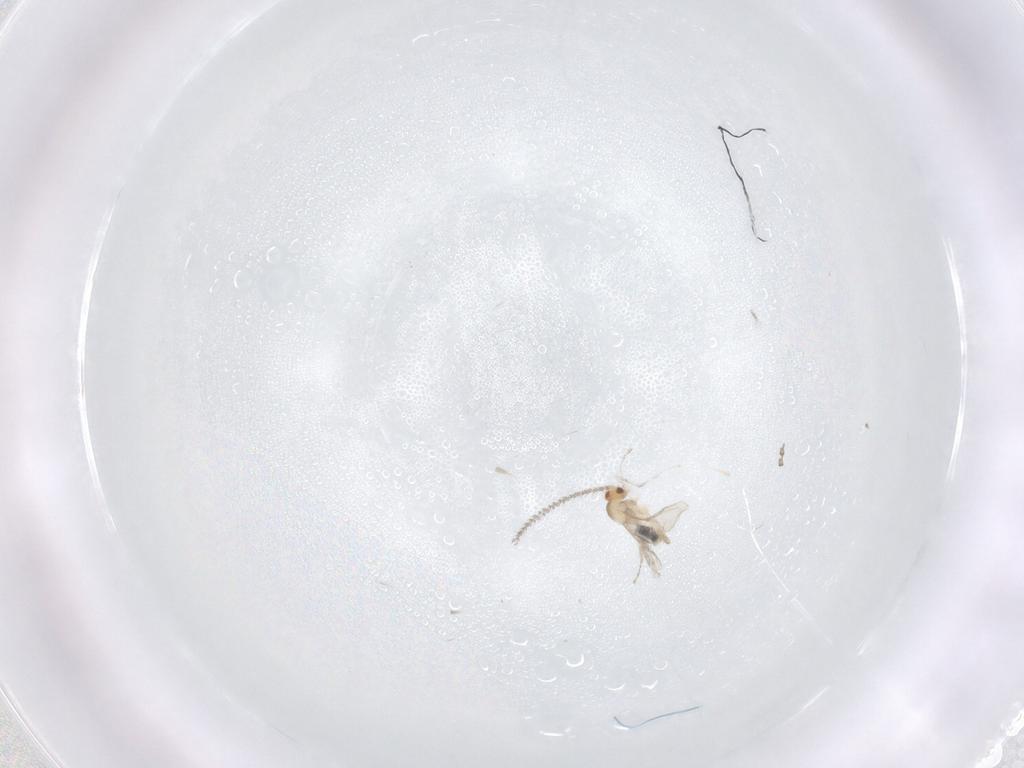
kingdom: Animalia
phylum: Arthropoda
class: Insecta
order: Diptera
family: Cecidomyiidae
